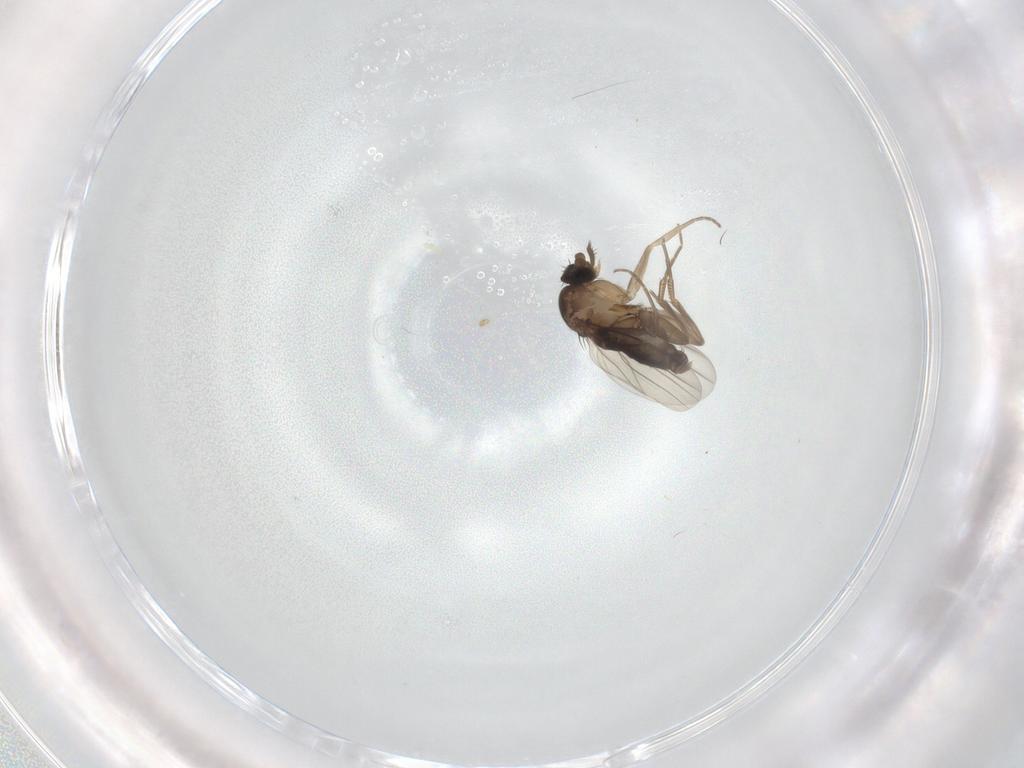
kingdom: Animalia
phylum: Arthropoda
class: Insecta
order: Diptera
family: Phoridae
